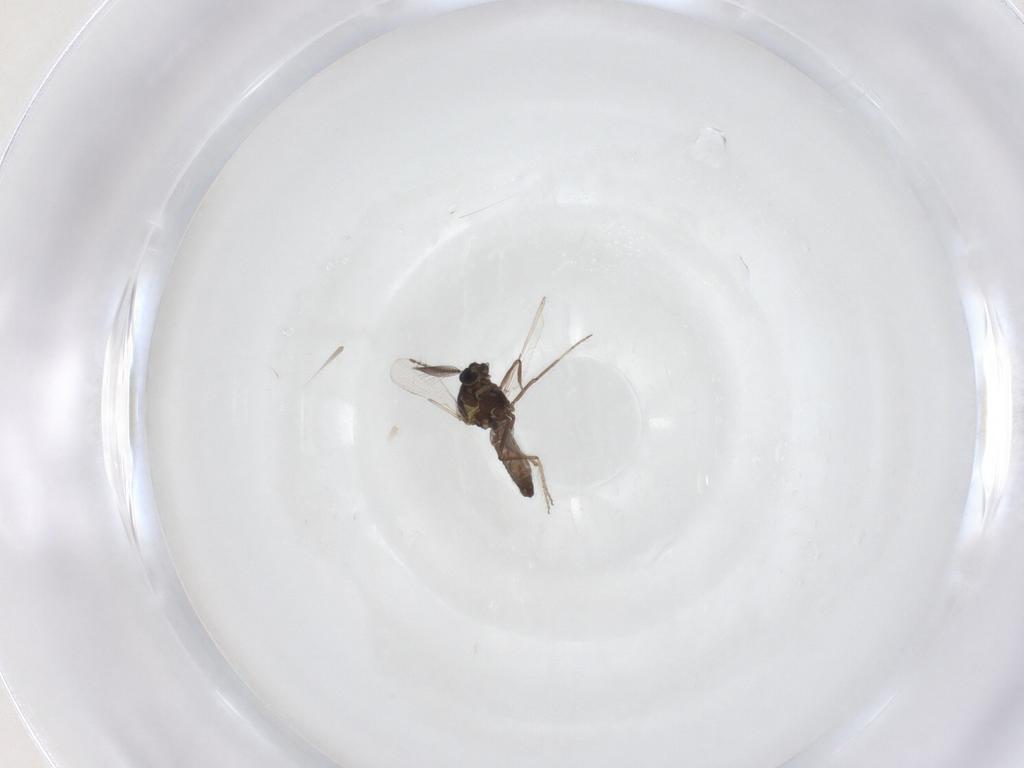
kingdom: Animalia
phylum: Arthropoda
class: Insecta
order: Diptera
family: Ceratopogonidae
